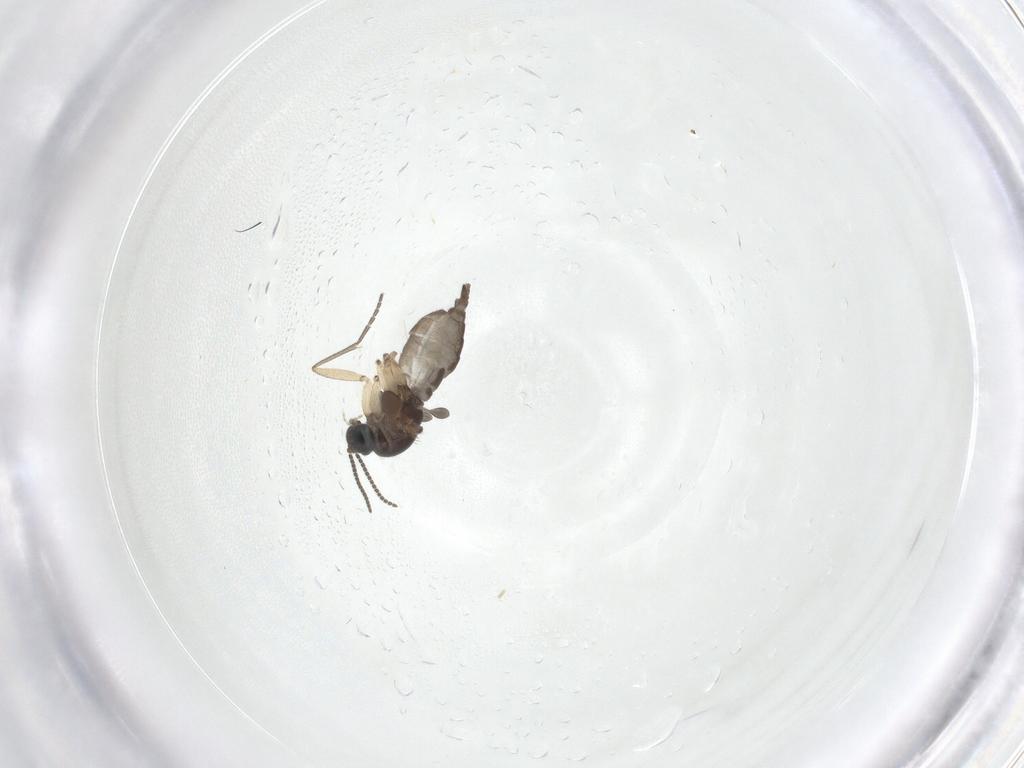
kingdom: Animalia
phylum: Arthropoda
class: Insecta
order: Diptera
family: Sciaridae
